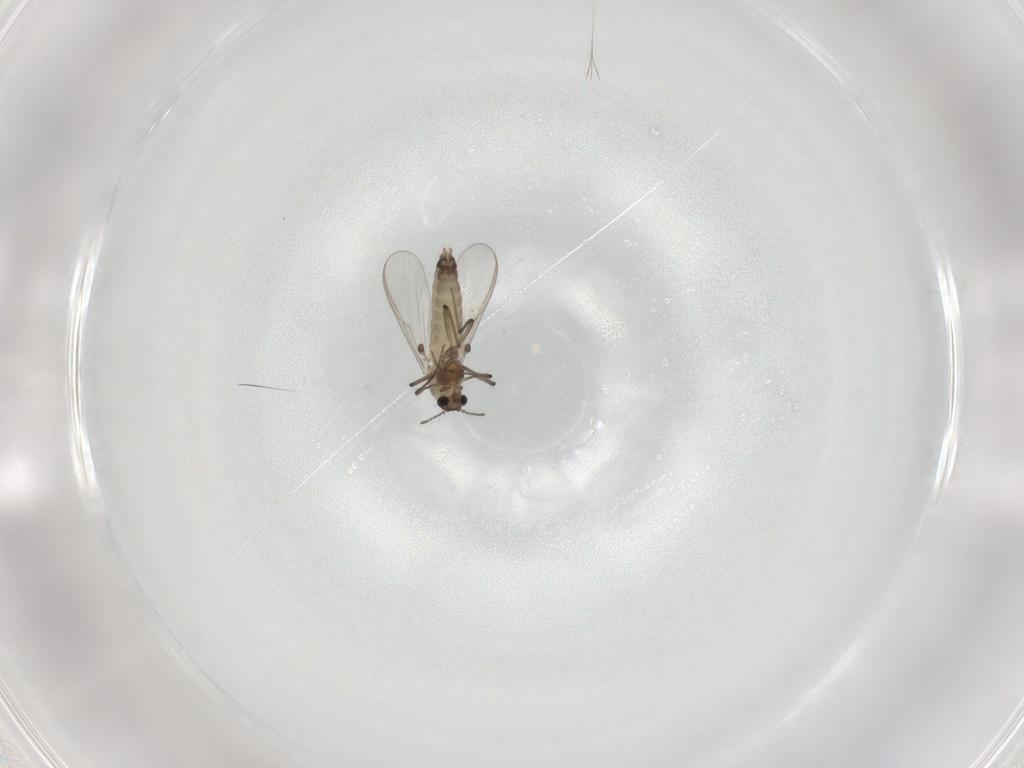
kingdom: Animalia
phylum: Arthropoda
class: Insecta
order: Diptera
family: Chironomidae
